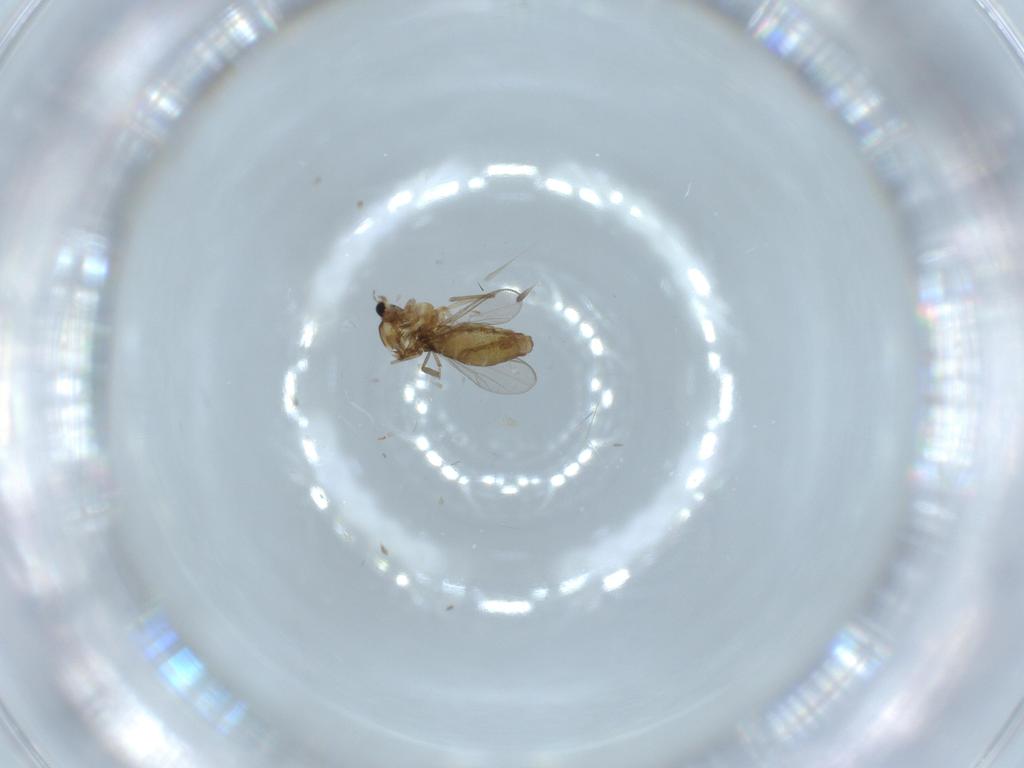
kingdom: Animalia
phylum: Arthropoda
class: Insecta
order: Diptera
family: Chironomidae
